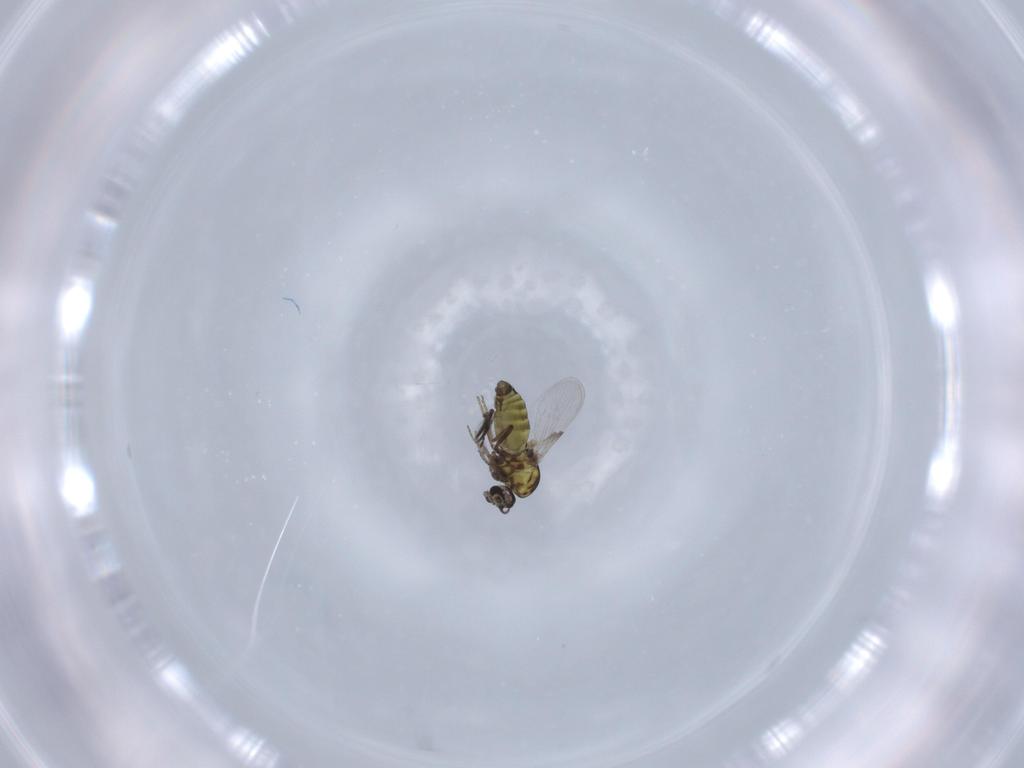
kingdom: Animalia
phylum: Arthropoda
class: Insecta
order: Diptera
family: Ceratopogonidae
